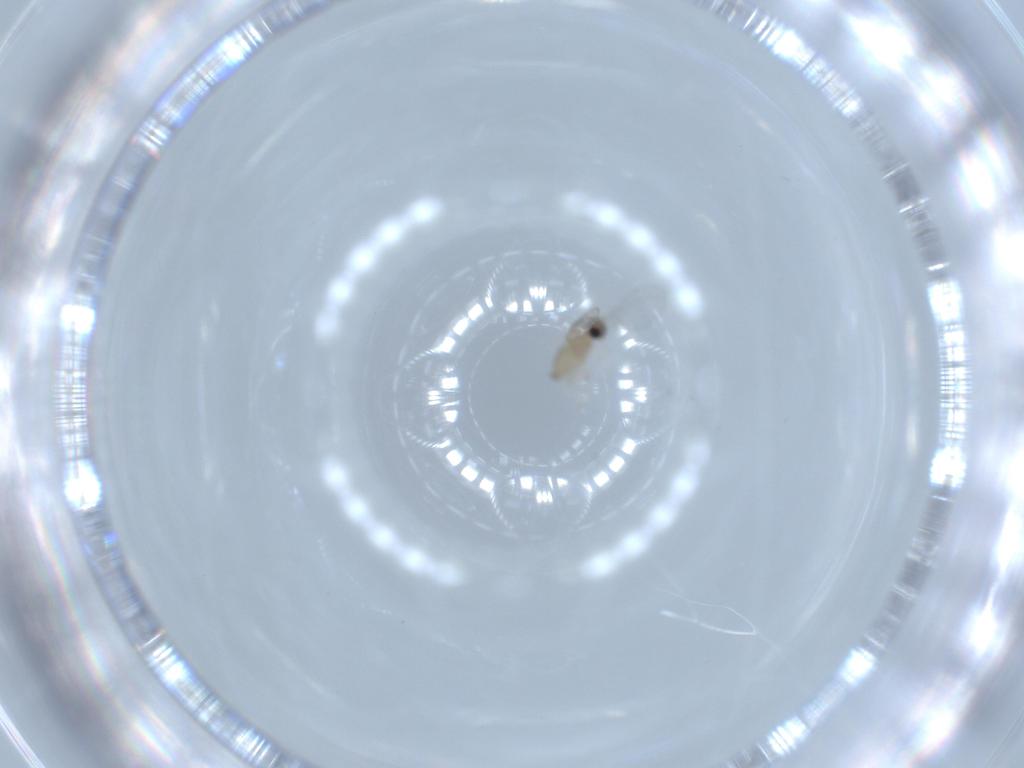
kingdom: Animalia
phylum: Arthropoda
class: Insecta
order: Diptera
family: Cecidomyiidae
